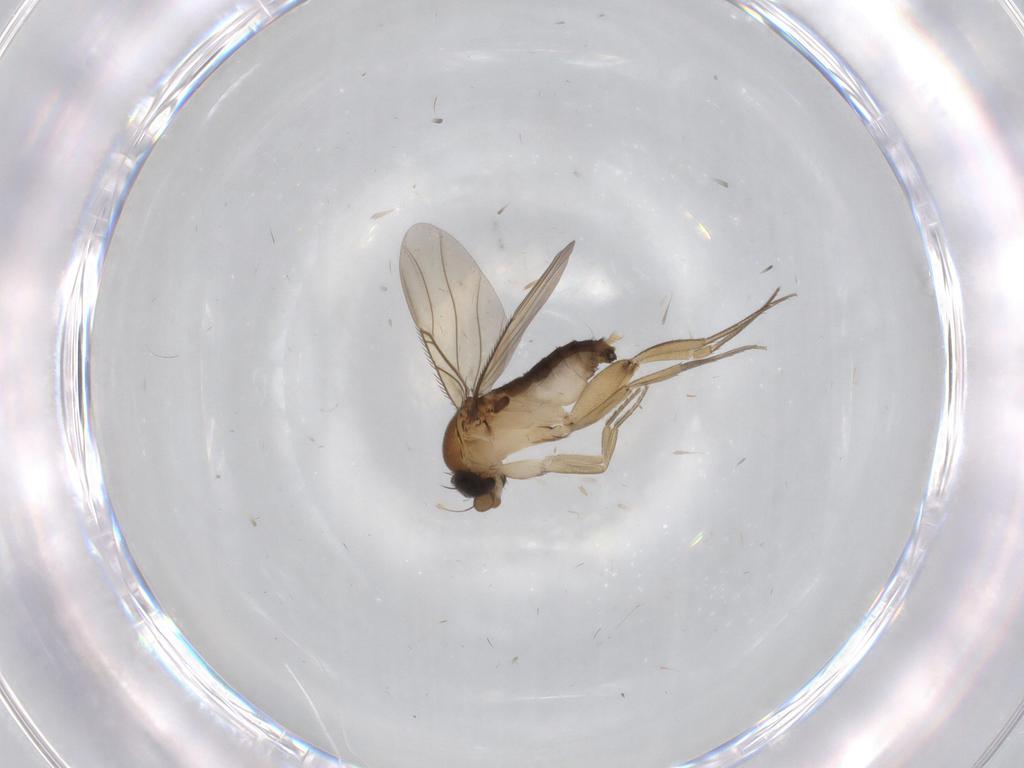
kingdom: Animalia
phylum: Arthropoda
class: Insecta
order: Diptera
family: Phoridae
